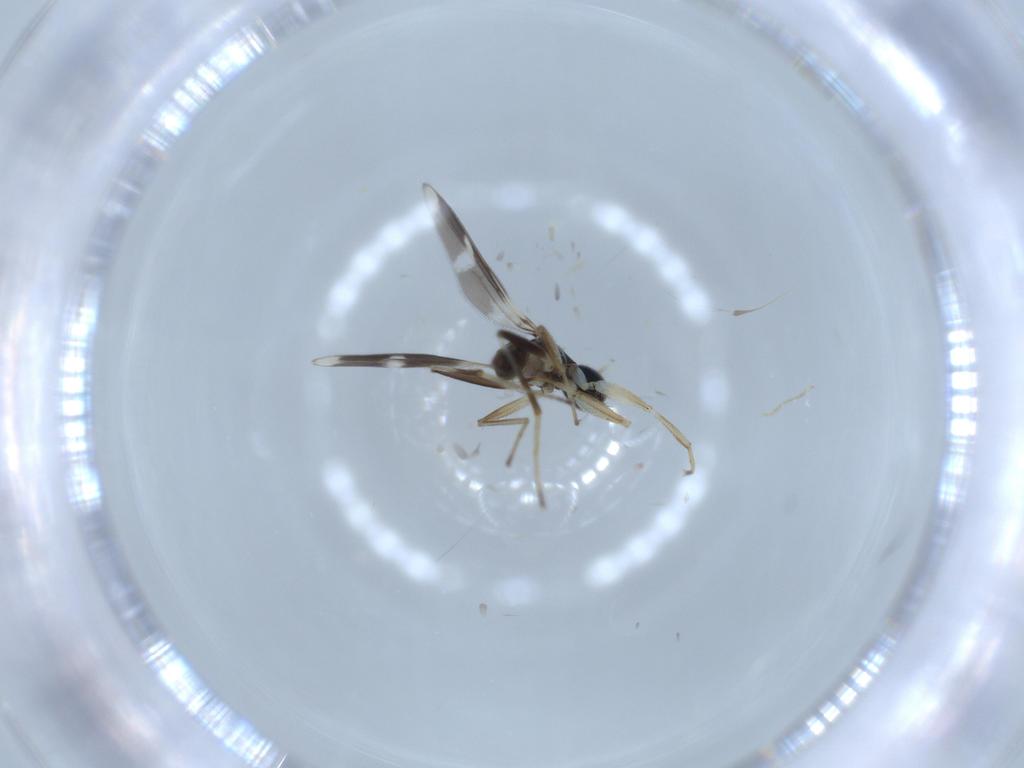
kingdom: Animalia
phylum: Arthropoda
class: Insecta
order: Diptera
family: Hybotidae
